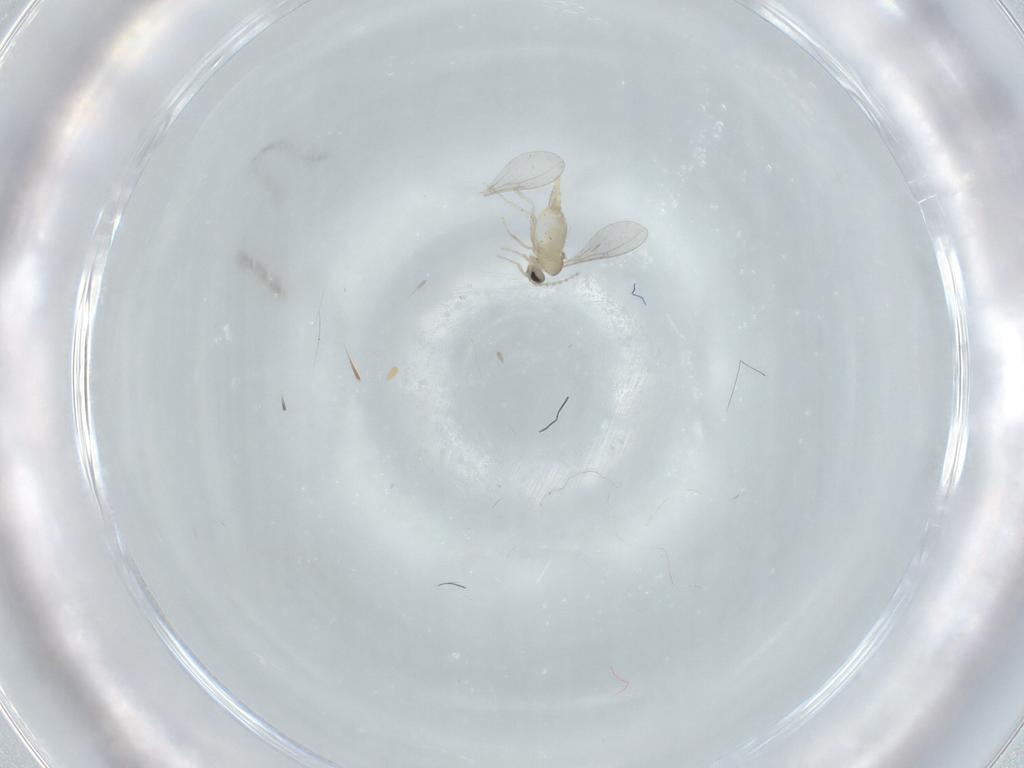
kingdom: Animalia
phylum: Arthropoda
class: Insecta
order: Diptera
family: Cecidomyiidae
